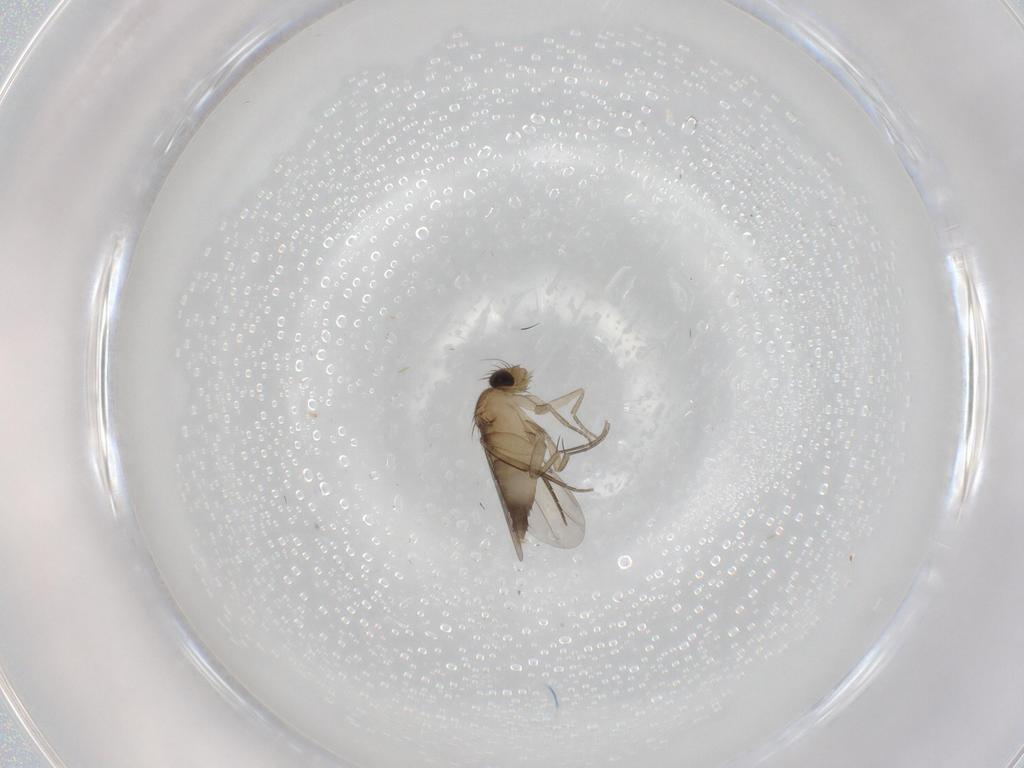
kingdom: Animalia
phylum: Arthropoda
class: Insecta
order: Diptera
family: Phoridae
